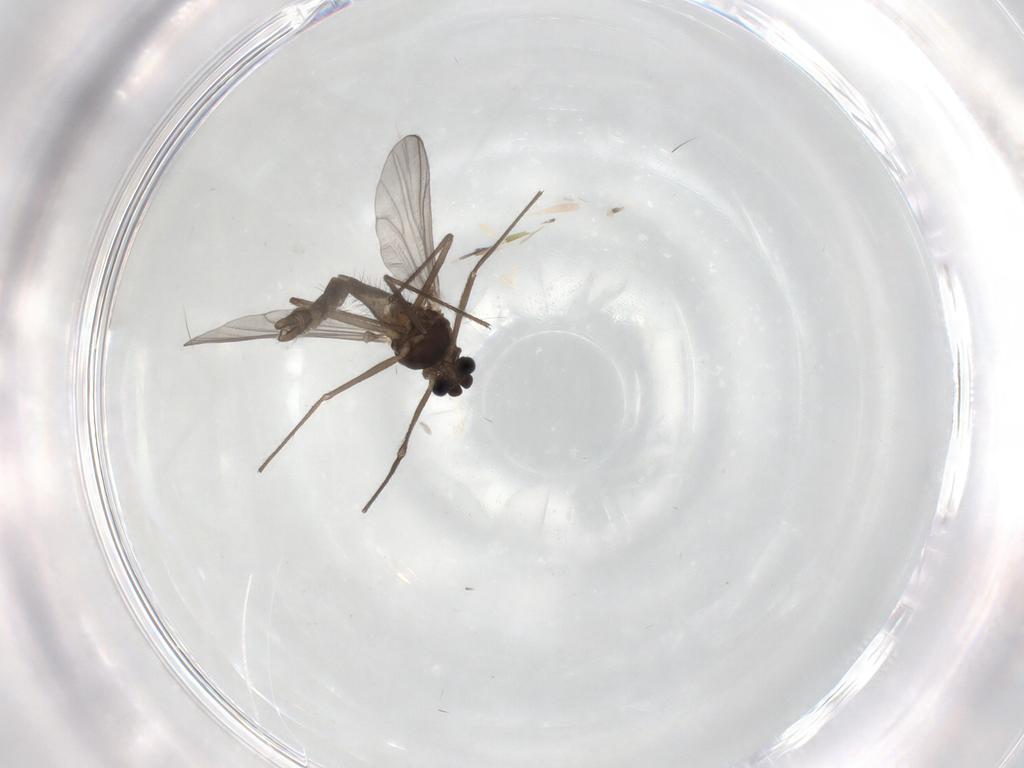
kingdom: Animalia
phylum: Arthropoda
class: Insecta
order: Diptera
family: Chironomidae
